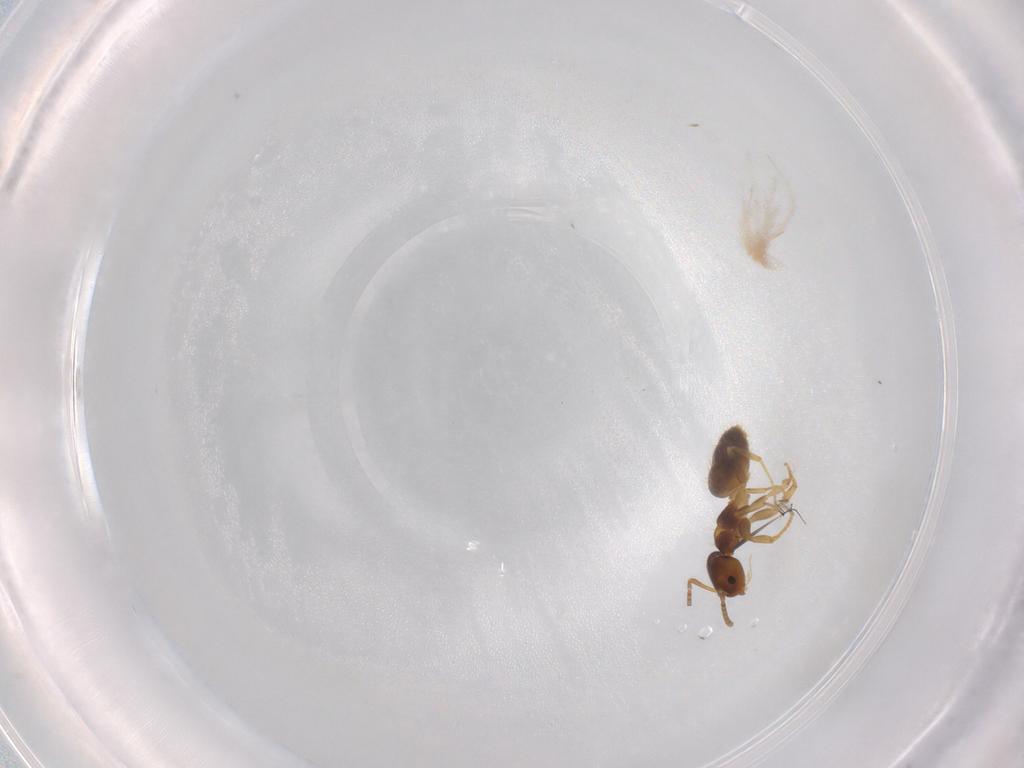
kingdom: Animalia
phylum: Arthropoda
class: Insecta
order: Hymenoptera
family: Formicidae
